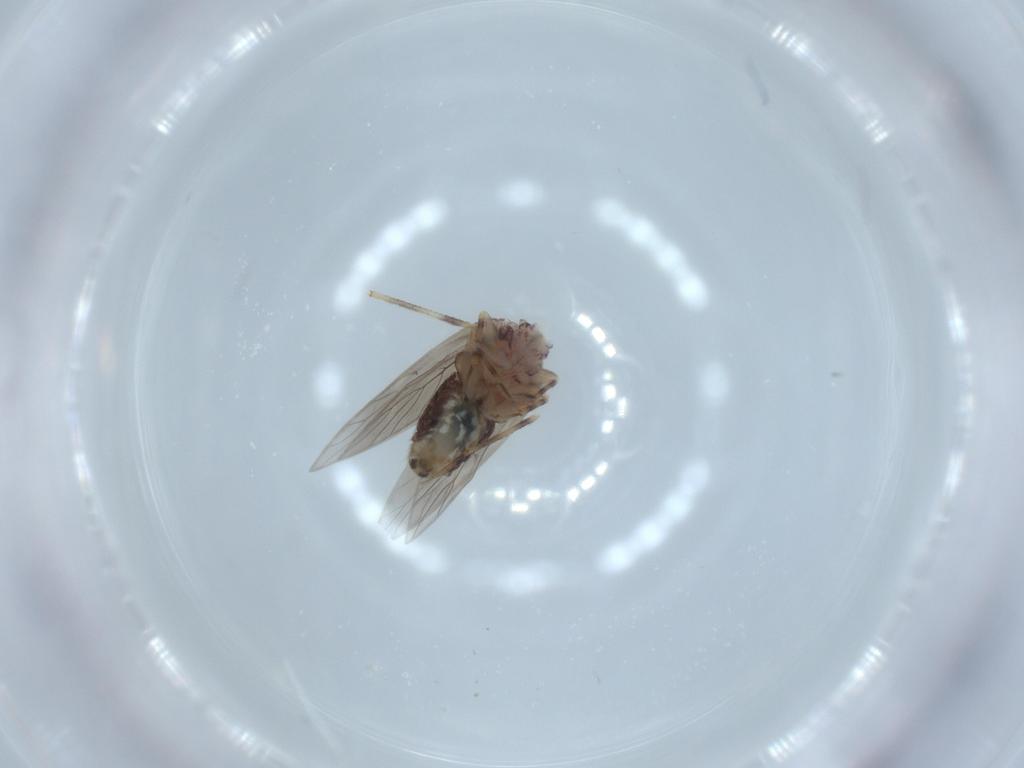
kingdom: Animalia
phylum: Arthropoda
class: Insecta
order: Psocodea
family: Lepidopsocidae
